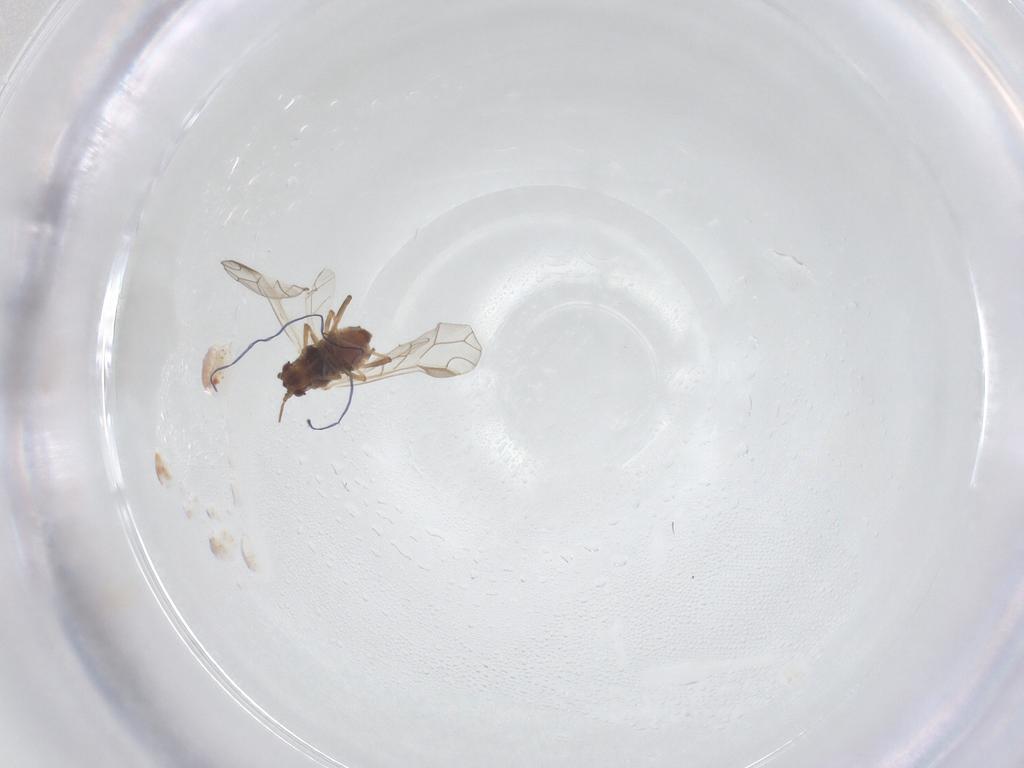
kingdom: Animalia
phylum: Arthropoda
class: Insecta
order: Hemiptera
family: Aphididae
